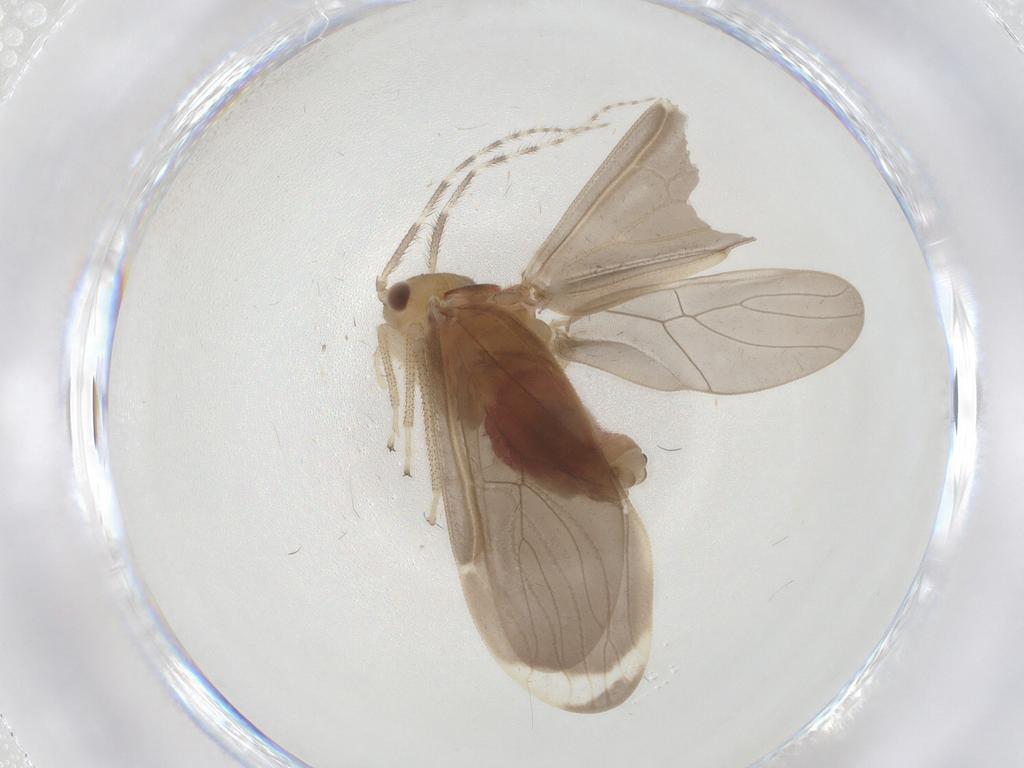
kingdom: Animalia
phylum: Arthropoda
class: Insecta
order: Psocodea
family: Amphipsocidae
